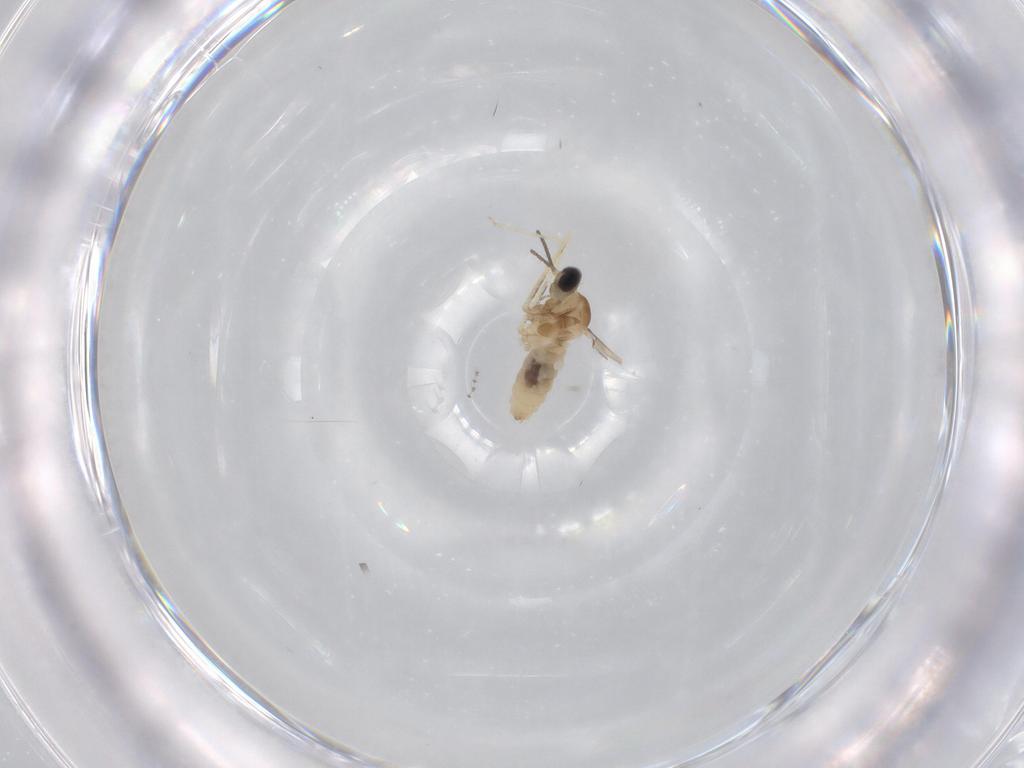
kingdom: Animalia
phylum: Arthropoda
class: Insecta
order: Diptera
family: Cecidomyiidae
